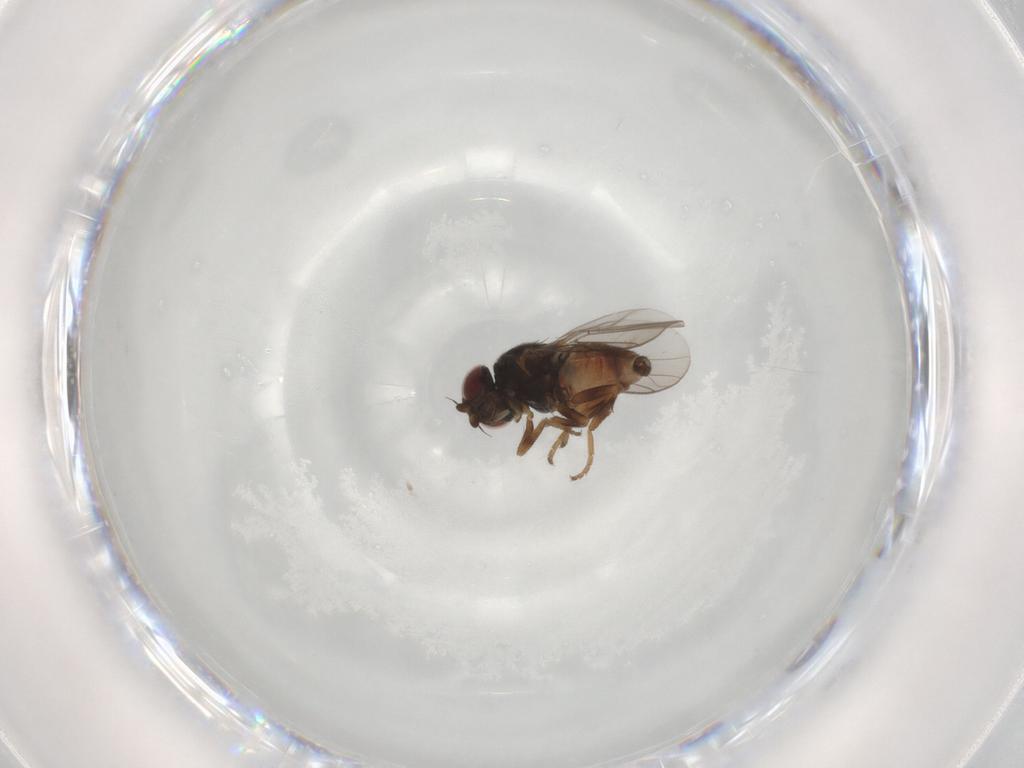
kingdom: Animalia
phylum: Arthropoda
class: Insecta
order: Diptera
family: Chloropidae
